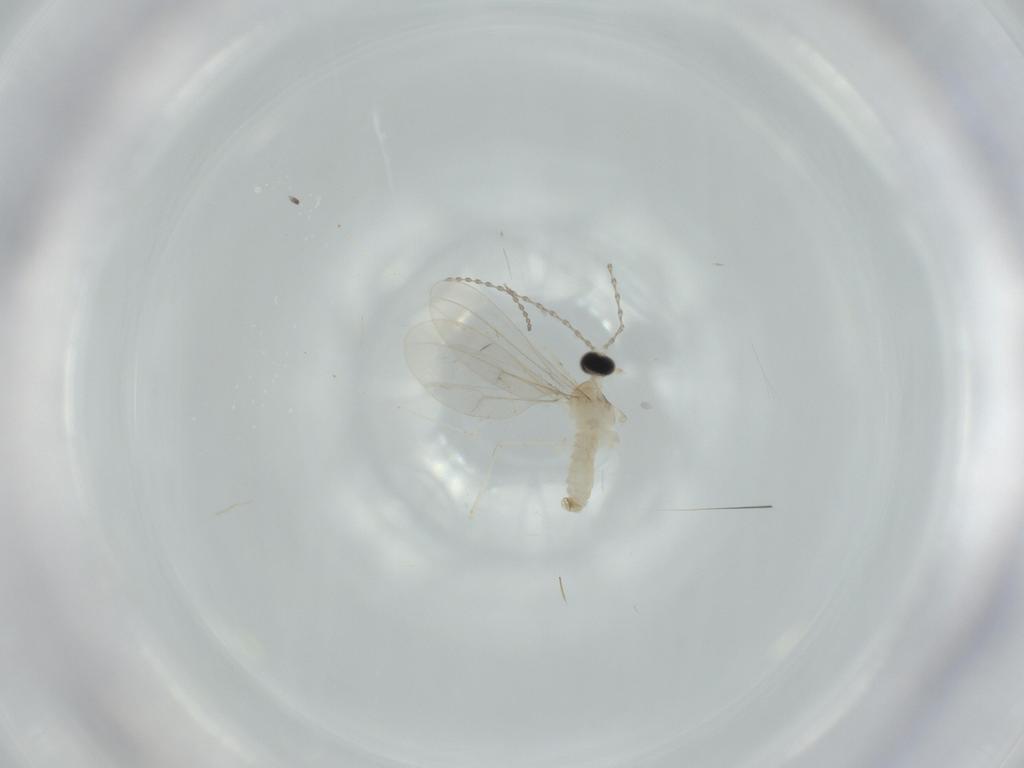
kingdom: Animalia
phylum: Arthropoda
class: Insecta
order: Diptera
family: Cecidomyiidae
